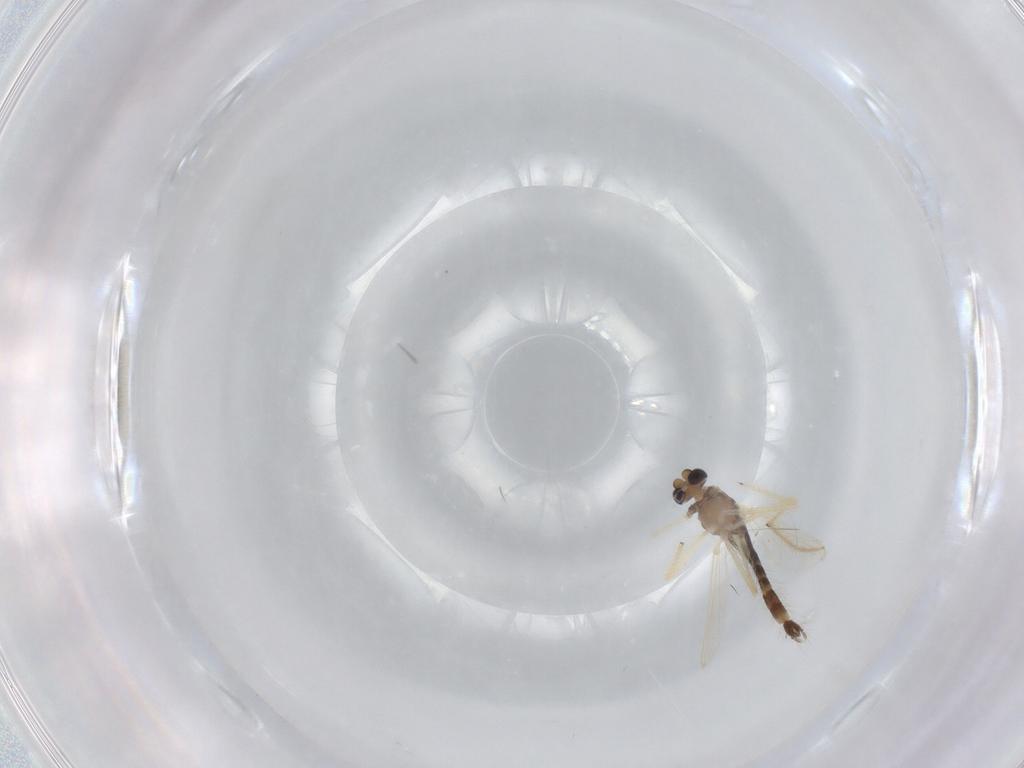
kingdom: Animalia
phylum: Arthropoda
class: Insecta
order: Diptera
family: Chironomidae
